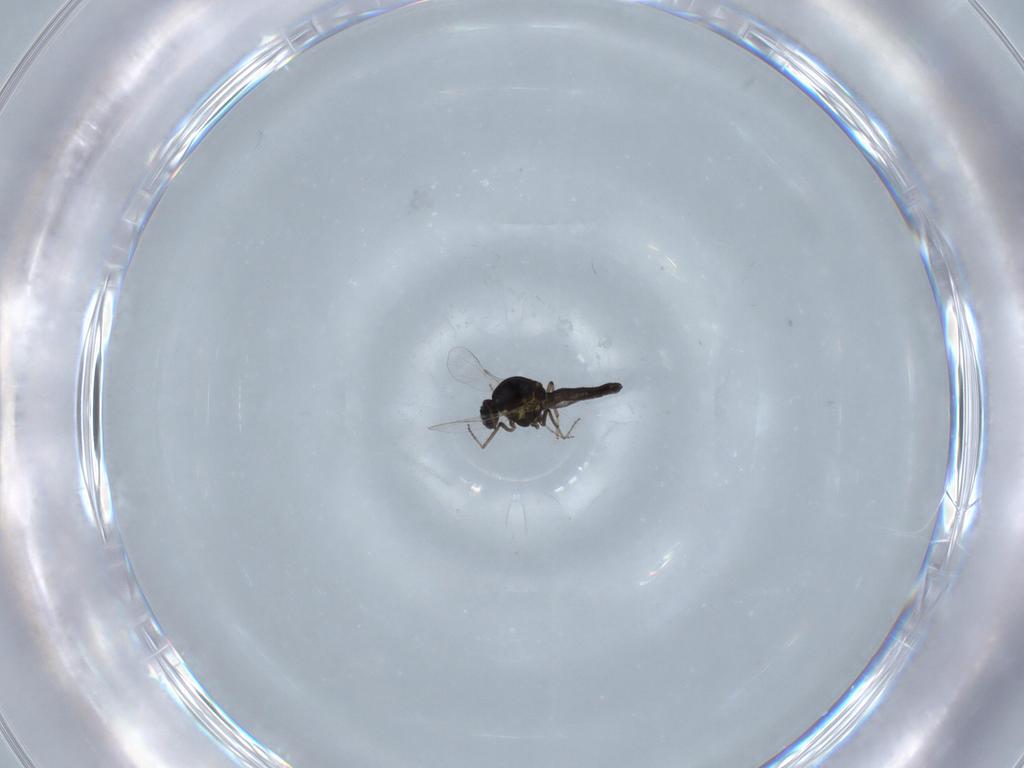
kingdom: Animalia
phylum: Arthropoda
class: Insecta
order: Diptera
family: Ceratopogonidae
